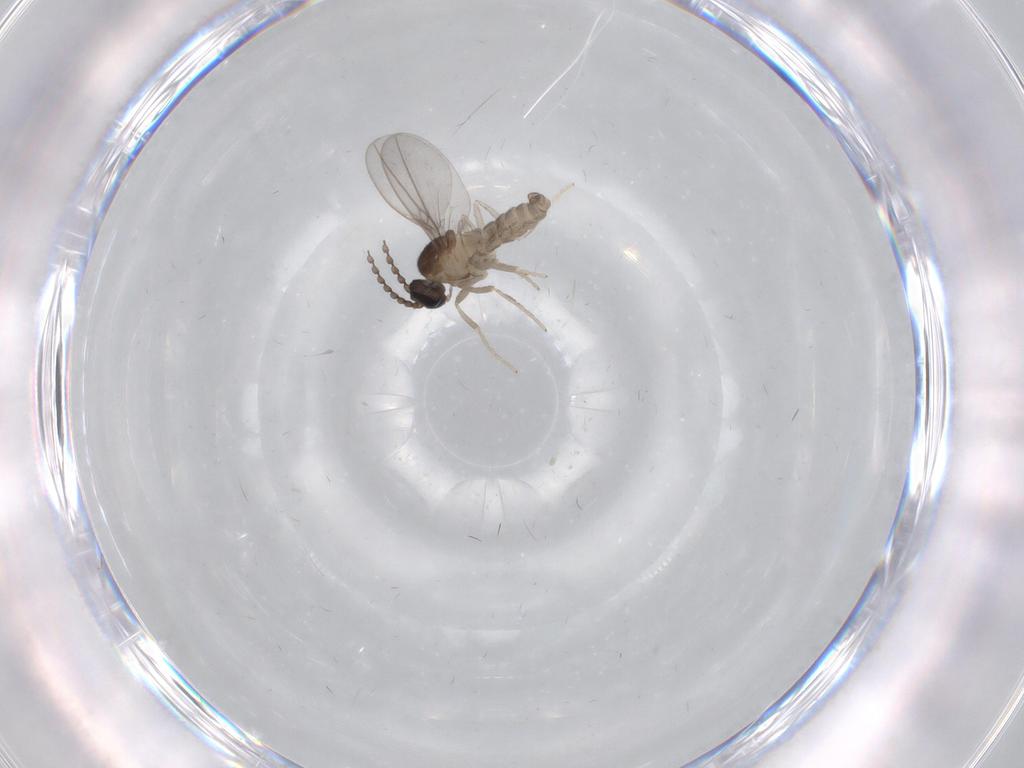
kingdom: Animalia
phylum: Arthropoda
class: Insecta
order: Diptera
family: Cecidomyiidae
